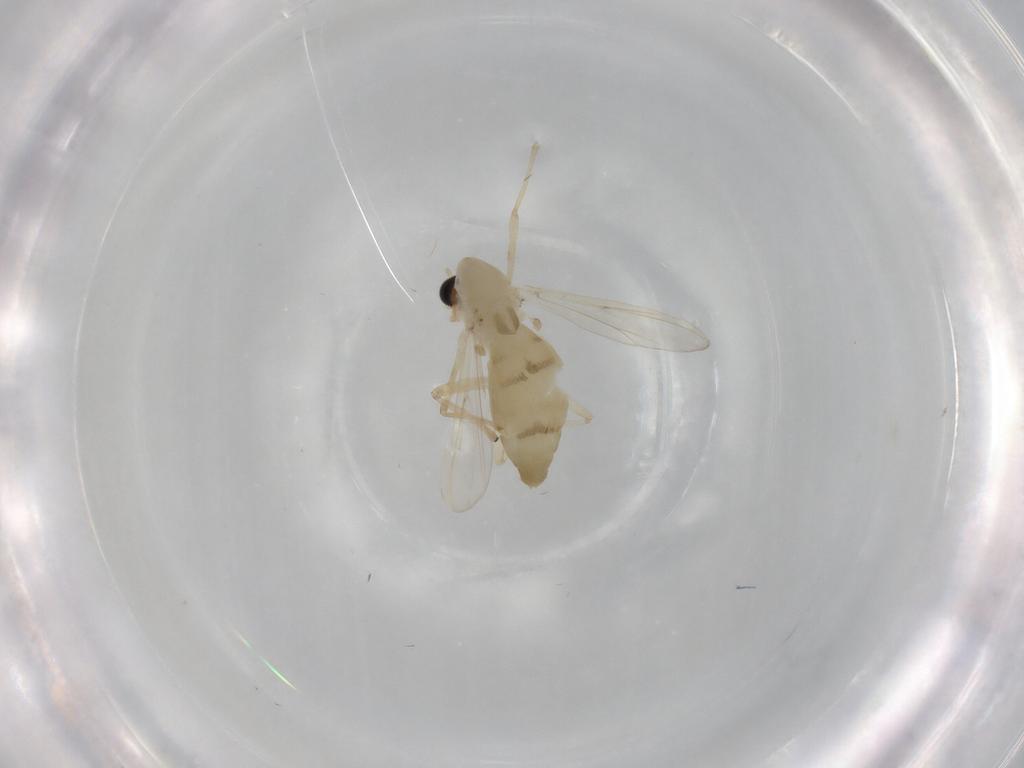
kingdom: Animalia
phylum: Arthropoda
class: Insecta
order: Diptera
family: Chironomidae
